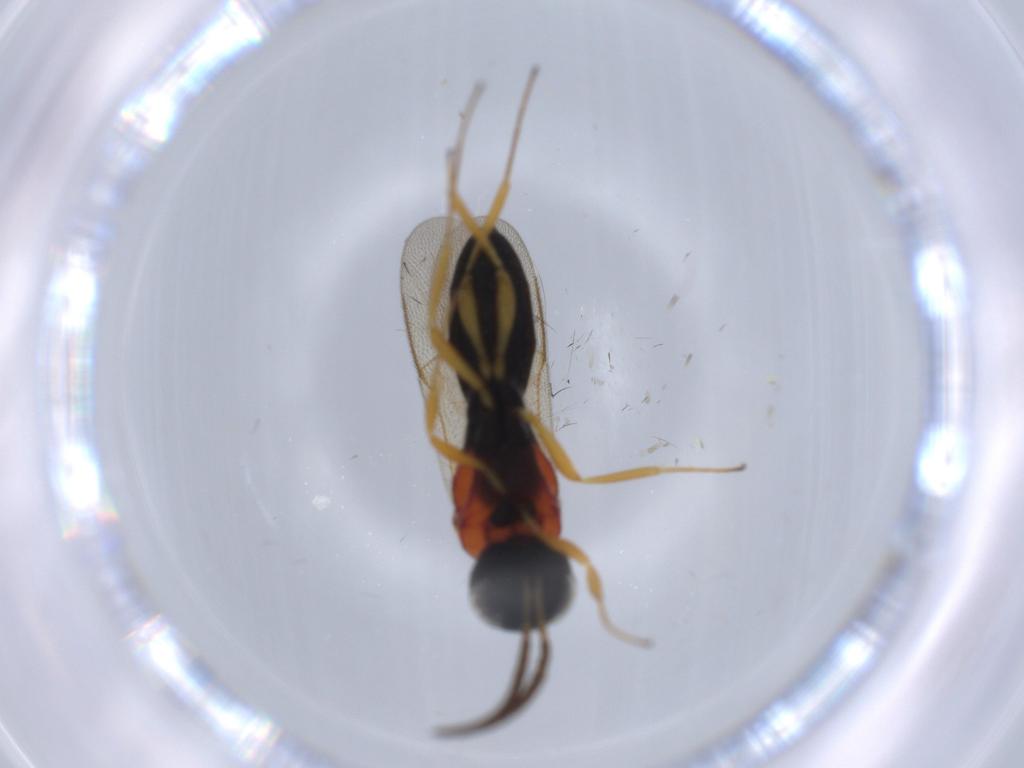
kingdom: Animalia
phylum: Arthropoda
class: Insecta
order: Hymenoptera
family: Scelionidae
